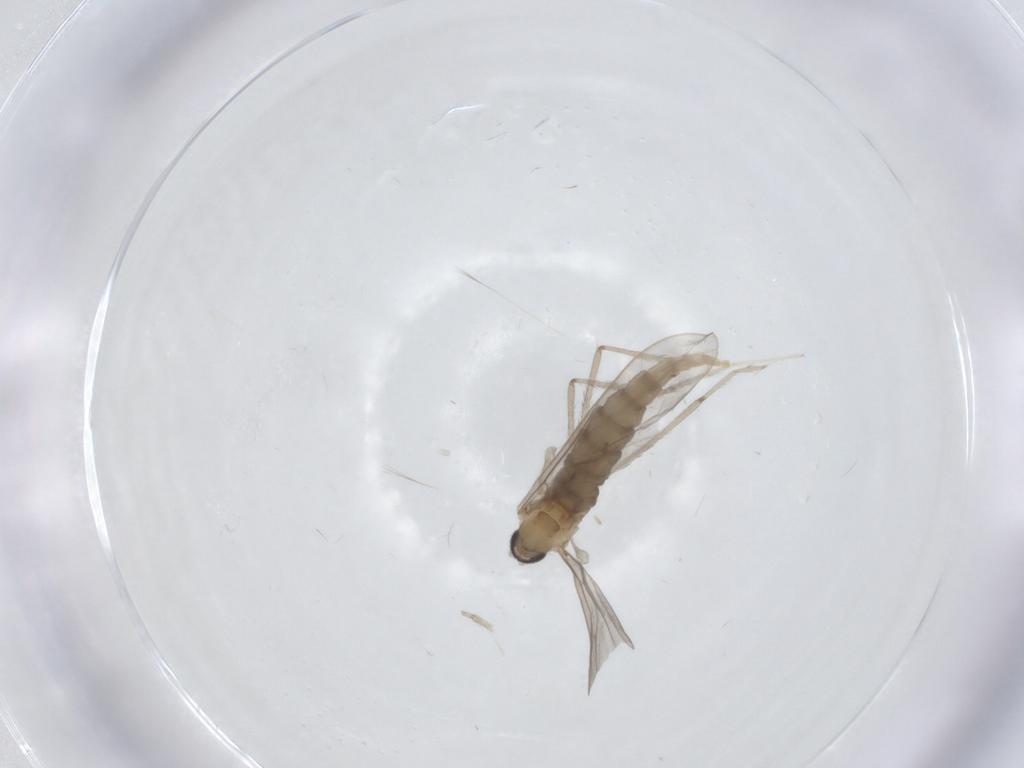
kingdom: Animalia
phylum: Arthropoda
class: Insecta
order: Diptera
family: Cecidomyiidae
